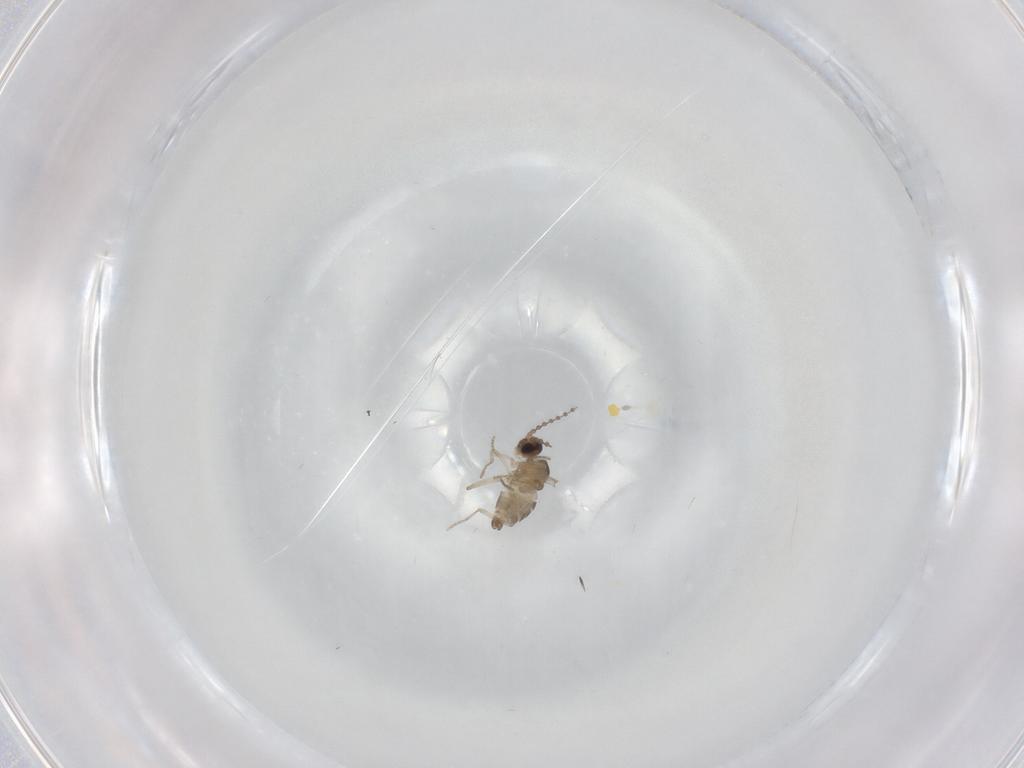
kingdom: Animalia
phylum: Arthropoda
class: Insecta
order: Diptera
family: Cecidomyiidae
